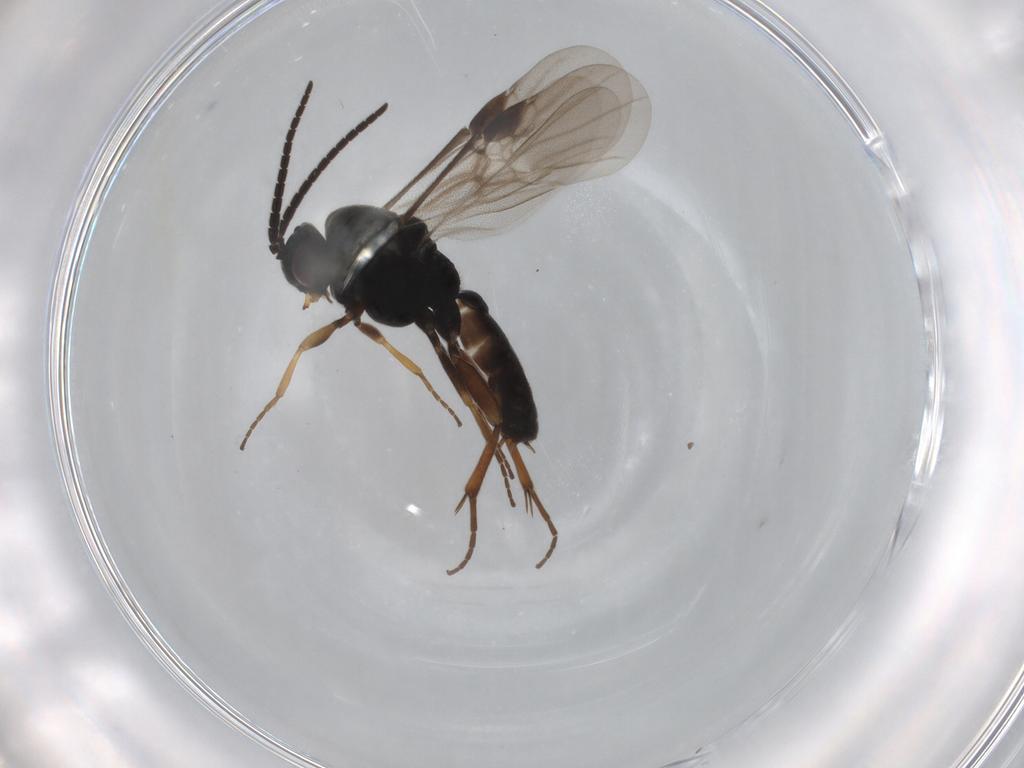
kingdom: Animalia
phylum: Arthropoda
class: Insecta
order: Hymenoptera
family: Braconidae
